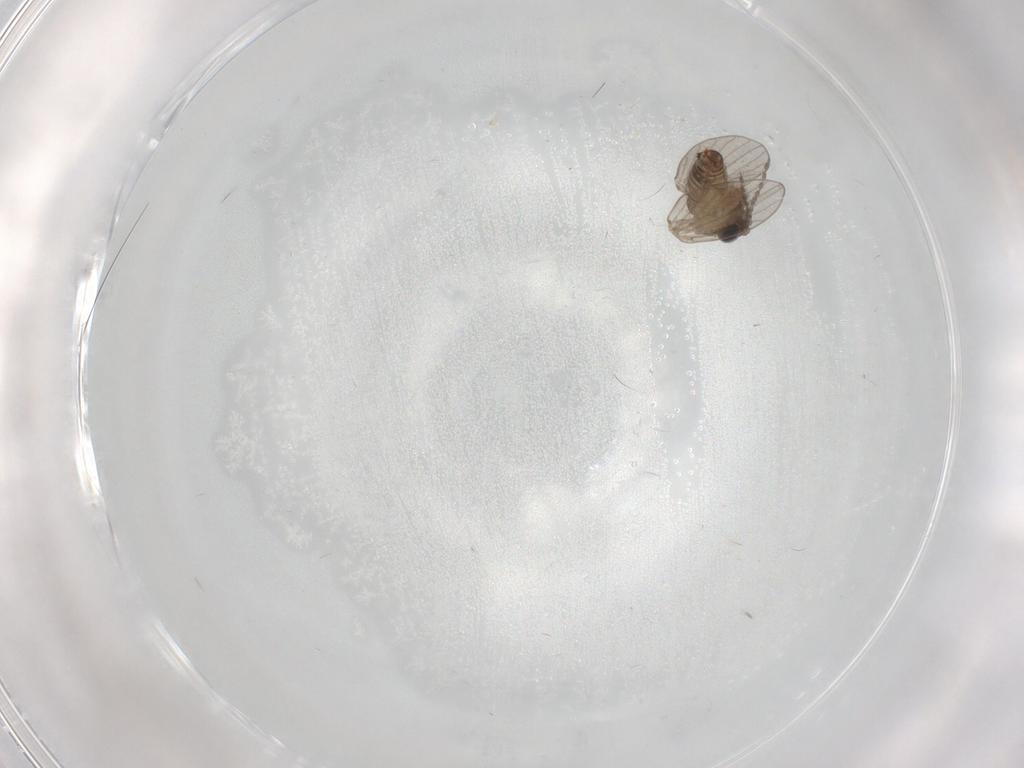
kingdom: Animalia
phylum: Arthropoda
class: Insecta
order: Diptera
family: Psychodidae
